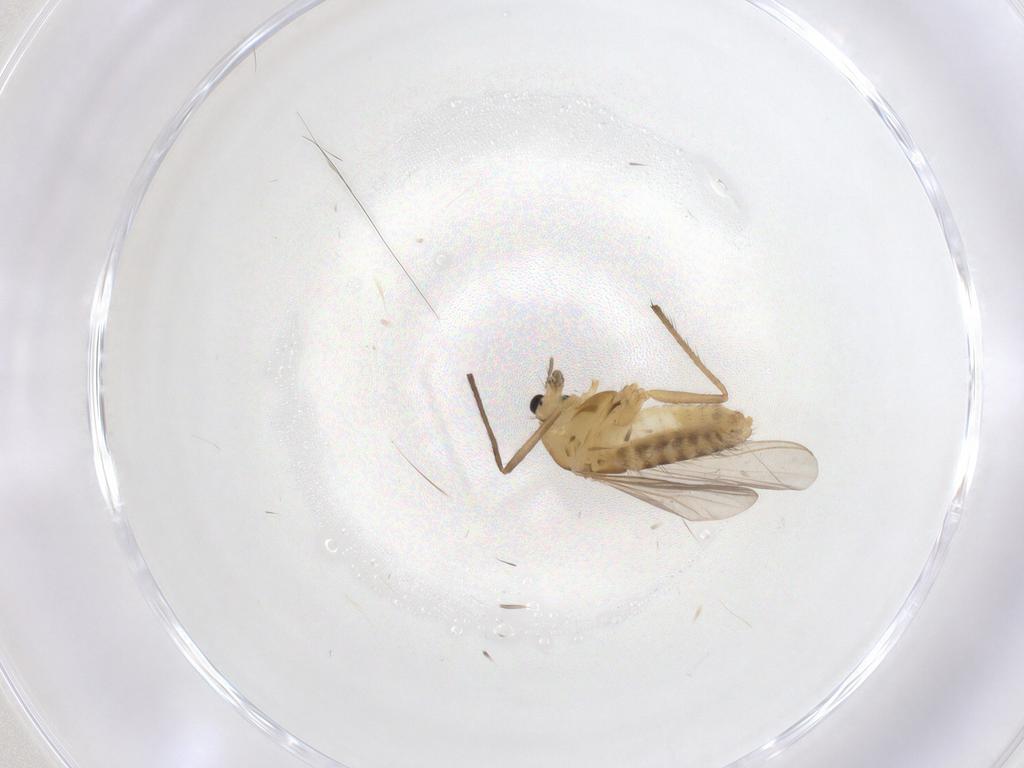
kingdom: Animalia
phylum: Arthropoda
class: Insecta
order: Diptera
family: Chironomidae
